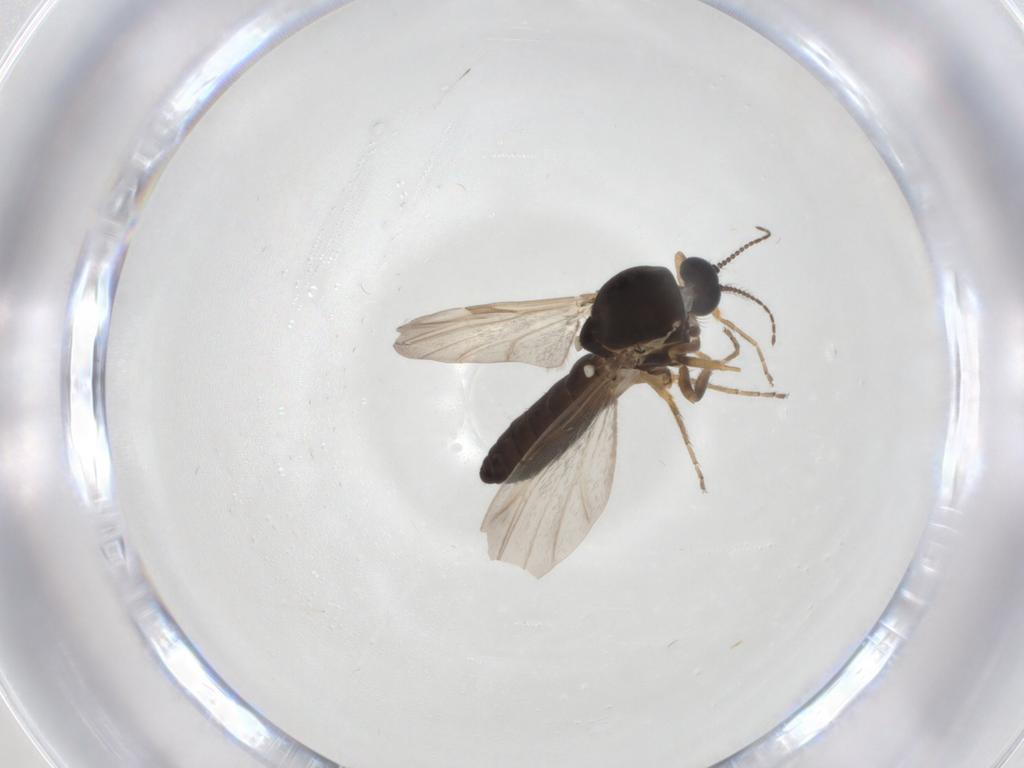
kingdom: Animalia
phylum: Arthropoda
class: Insecta
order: Diptera
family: Ceratopogonidae
